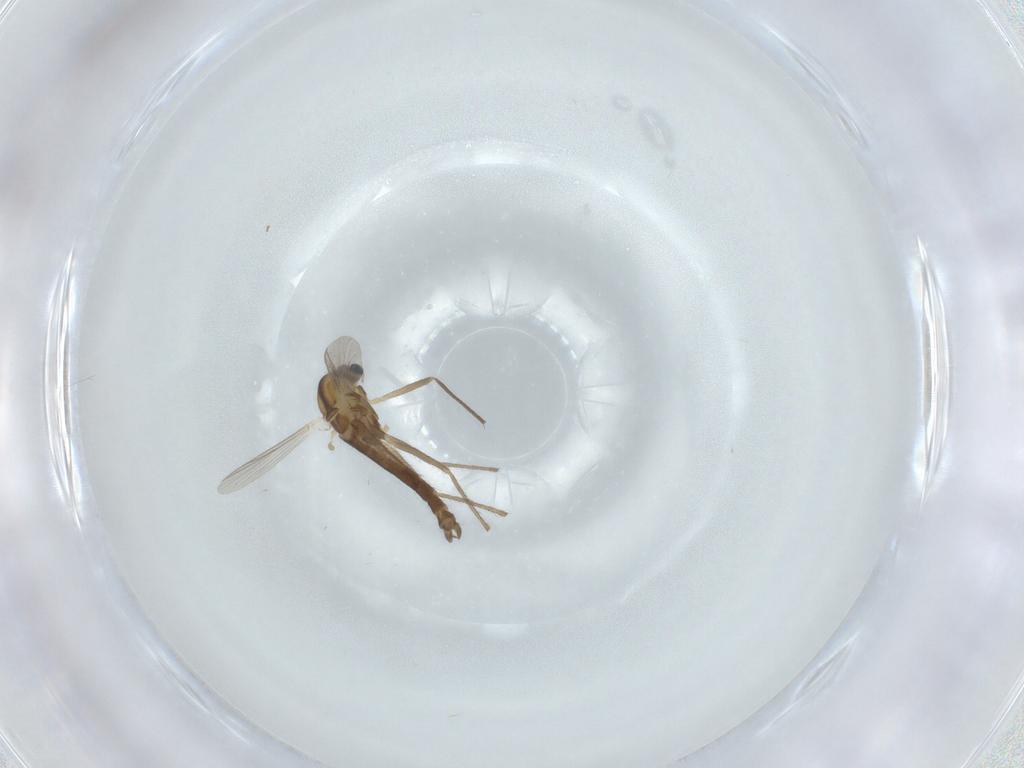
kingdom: Animalia
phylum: Arthropoda
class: Insecta
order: Diptera
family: Chironomidae
